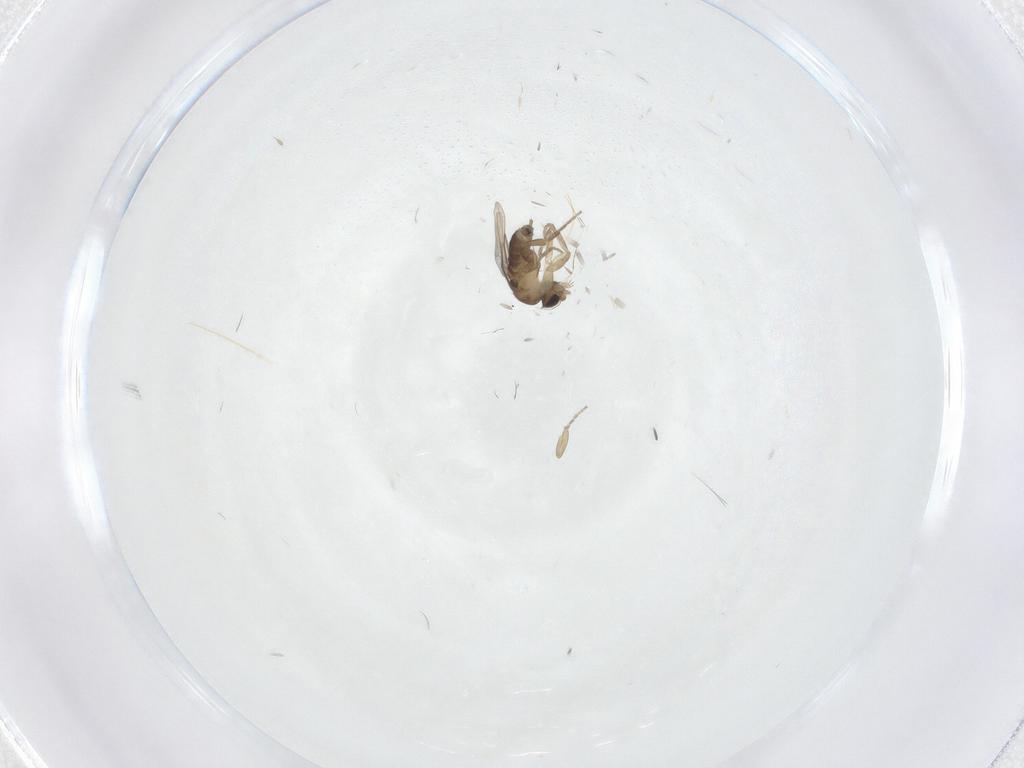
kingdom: Animalia
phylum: Arthropoda
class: Insecta
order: Diptera
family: Phoridae
